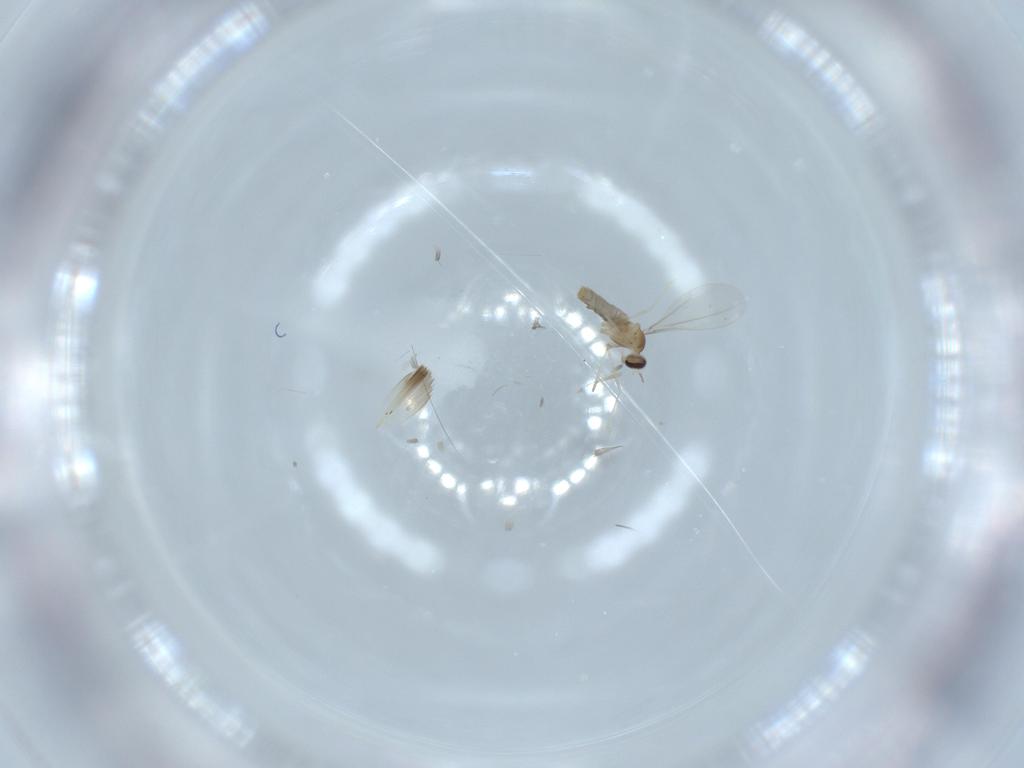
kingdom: Animalia
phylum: Arthropoda
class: Insecta
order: Diptera
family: Cecidomyiidae
